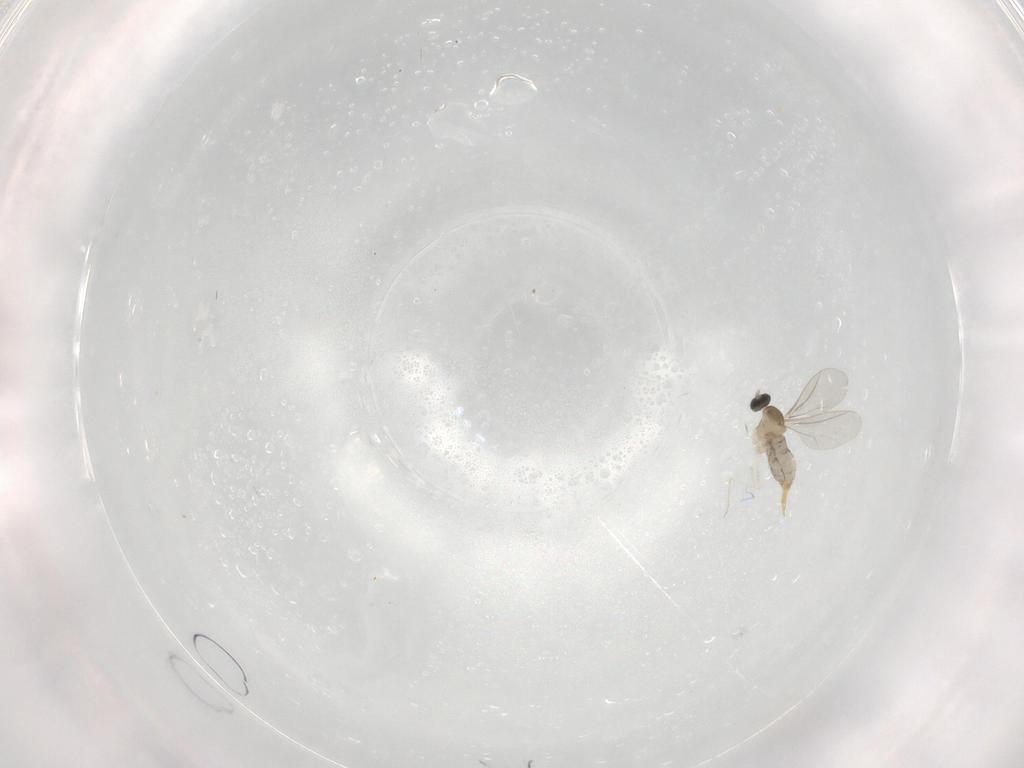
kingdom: Animalia
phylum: Arthropoda
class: Insecta
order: Diptera
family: Cecidomyiidae
